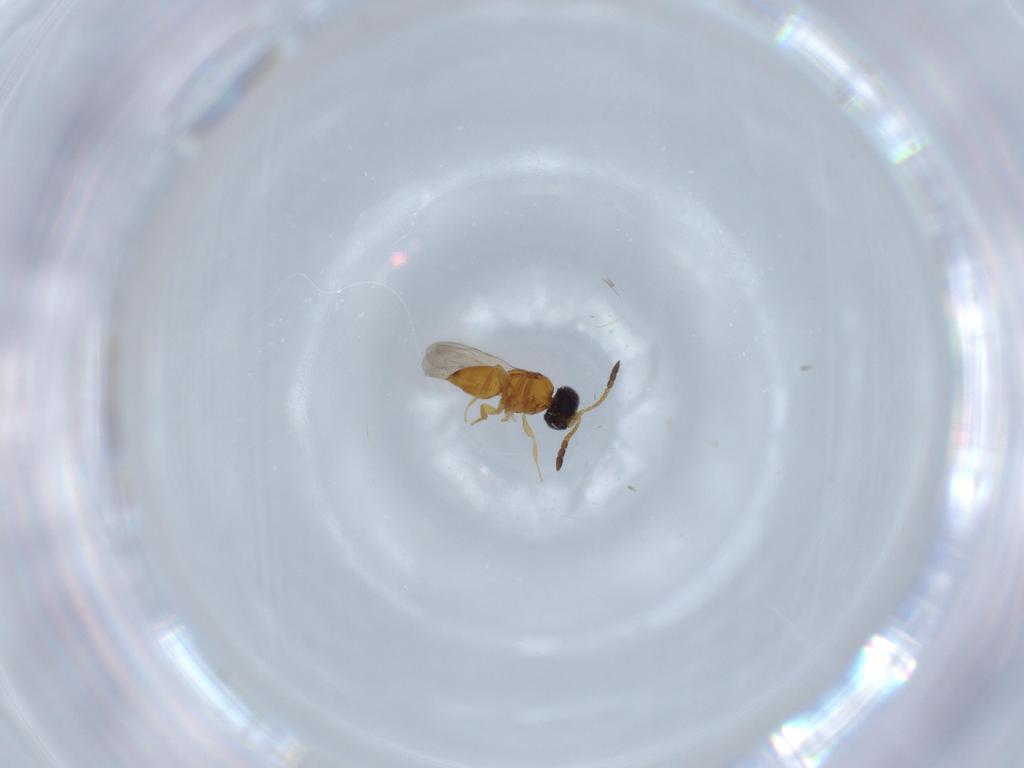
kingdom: Animalia
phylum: Arthropoda
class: Insecta
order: Hymenoptera
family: Ceraphronidae
